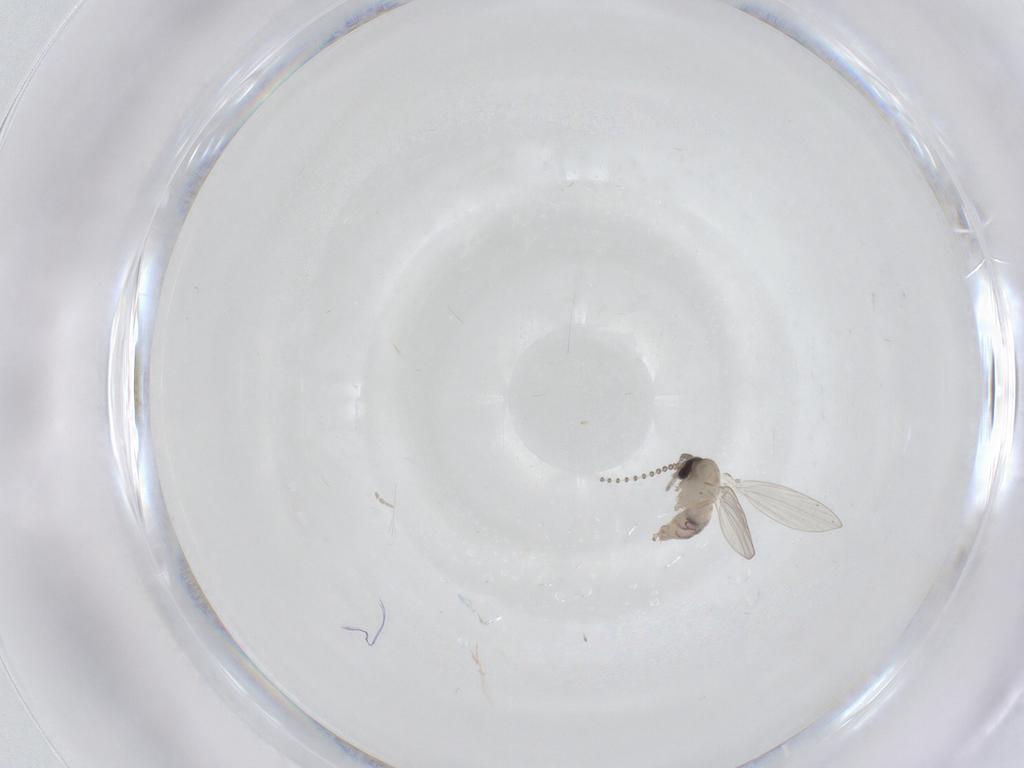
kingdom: Animalia
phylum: Arthropoda
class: Insecta
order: Diptera
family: Psychodidae
